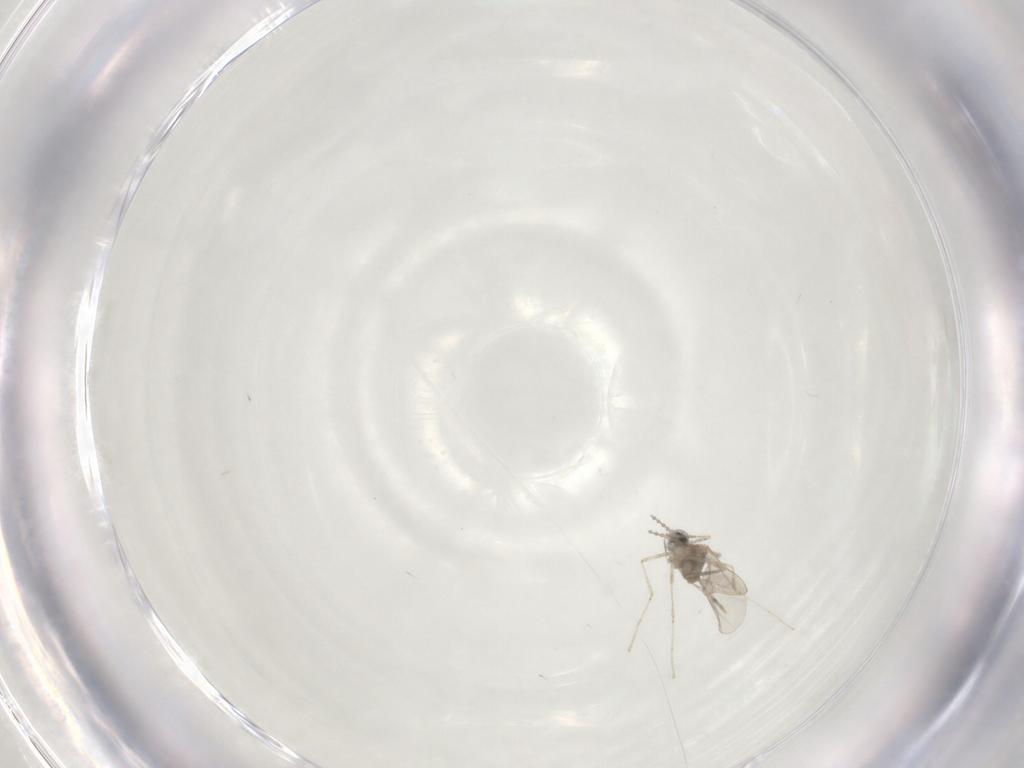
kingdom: Animalia
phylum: Arthropoda
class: Insecta
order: Diptera
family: Cecidomyiidae
